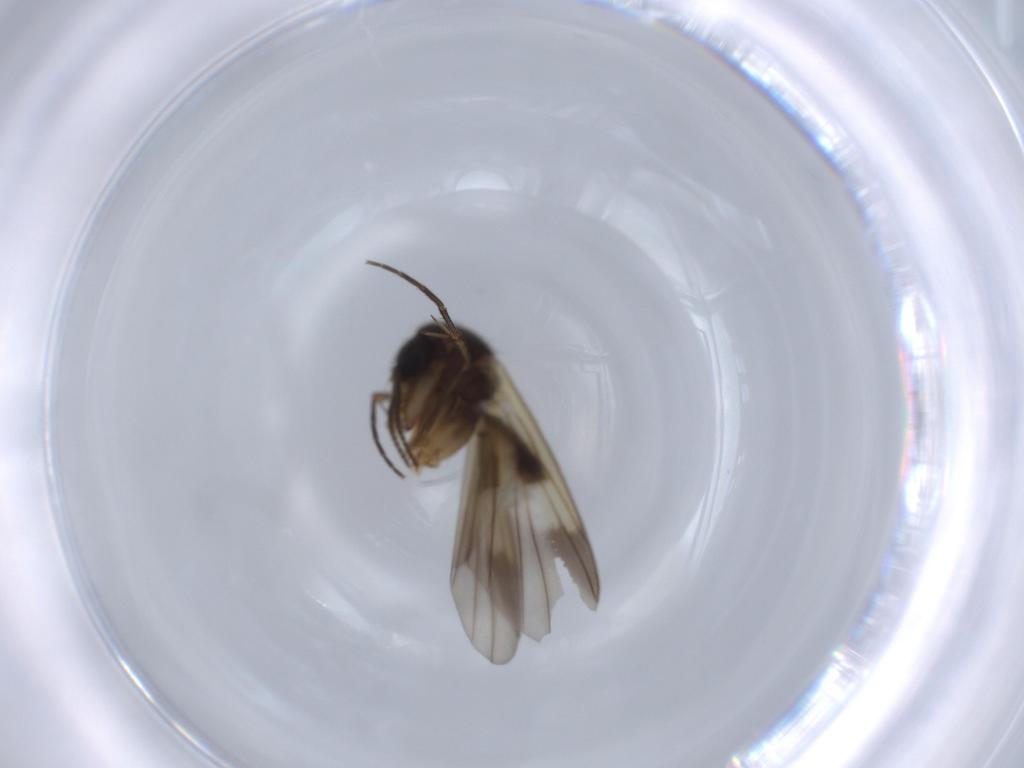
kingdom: Animalia
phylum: Arthropoda
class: Insecta
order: Diptera
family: Mycetophilidae
